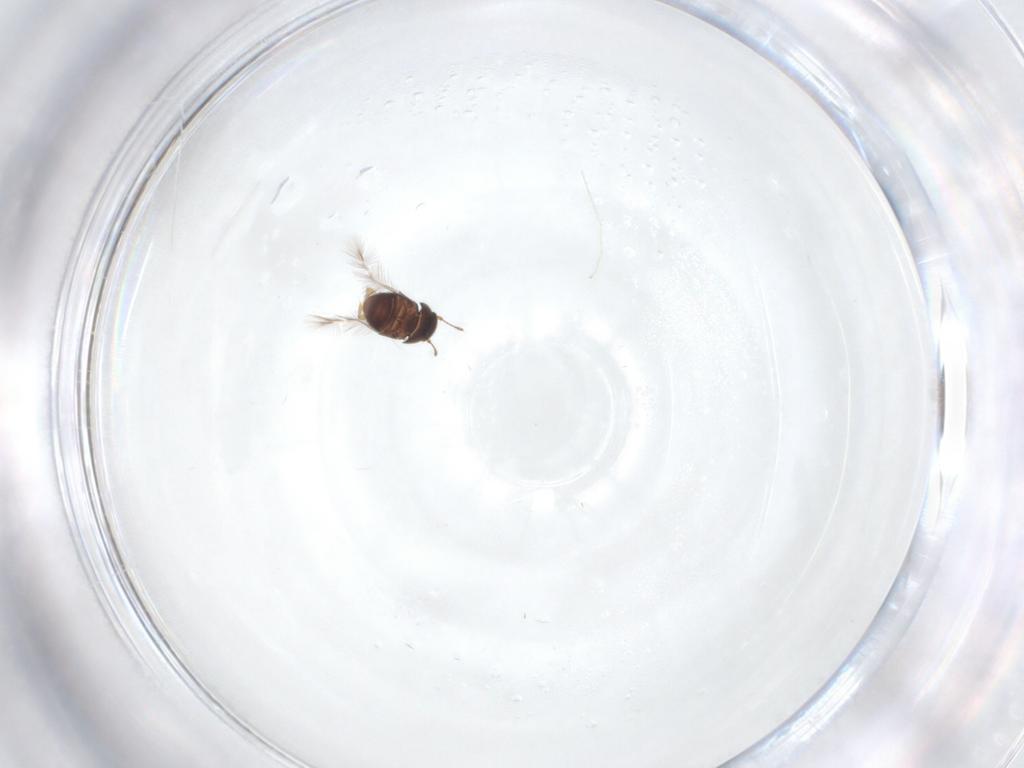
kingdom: Animalia
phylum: Arthropoda
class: Insecta
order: Coleoptera
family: Ptiliidae
